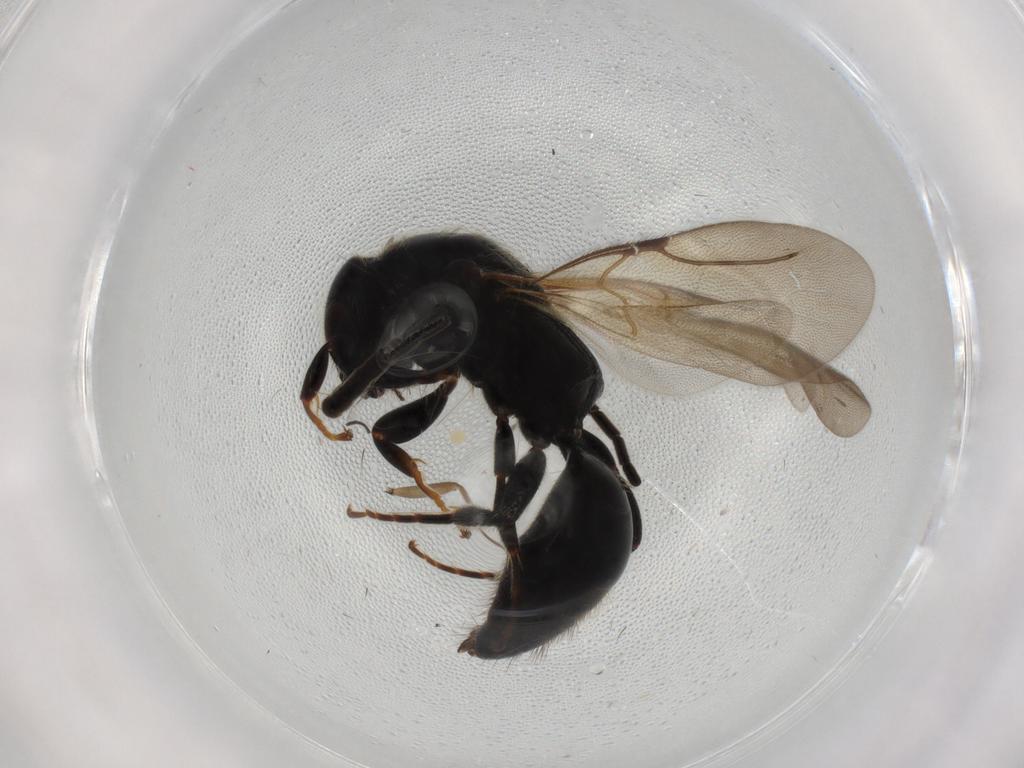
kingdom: Animalia
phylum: Arthropoda
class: Insecta
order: Hymenoptera
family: Bethylidae
